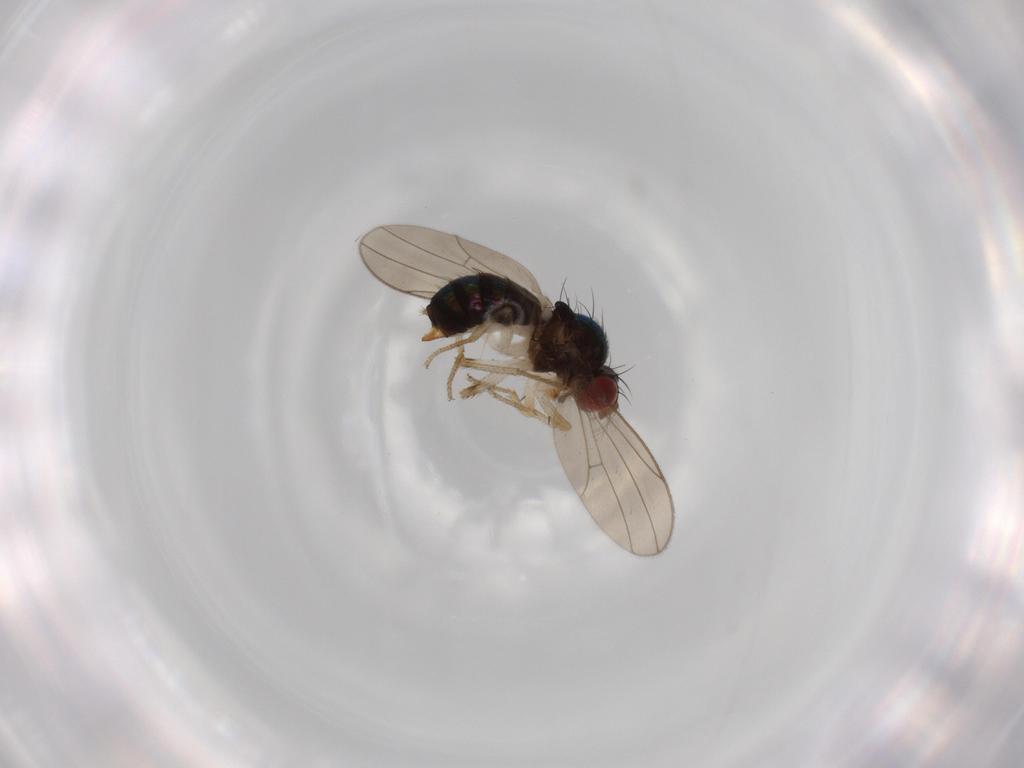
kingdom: Animalia
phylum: Arthropoda
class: Insecta
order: Diptera
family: Drosophilidae
